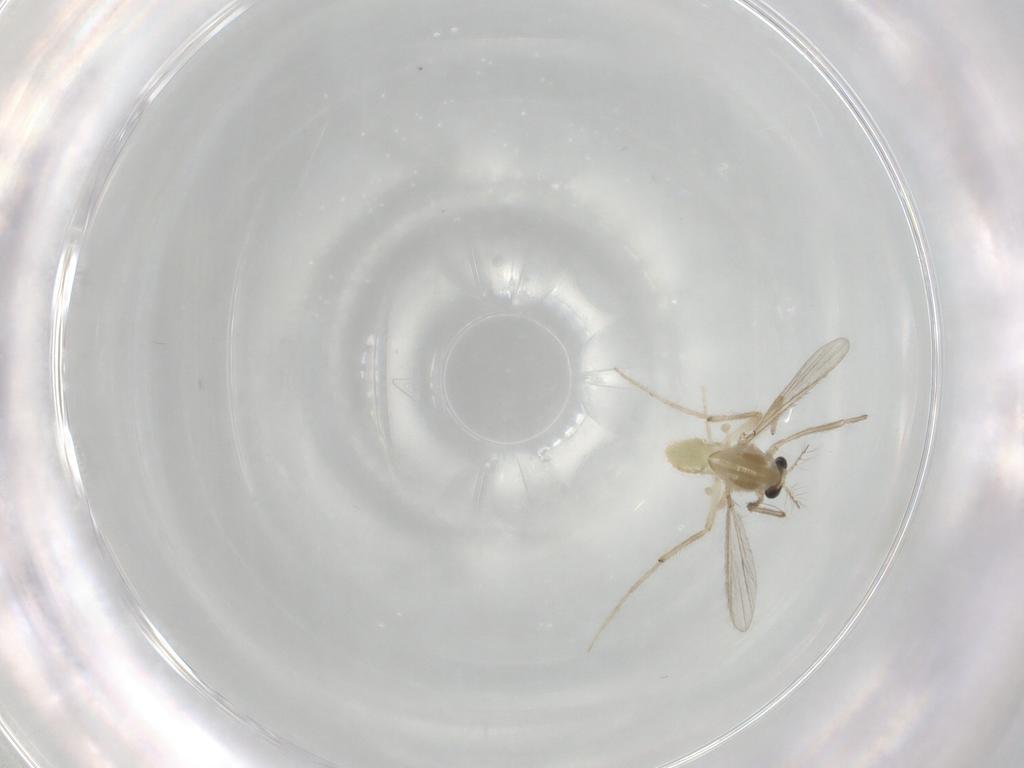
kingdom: Animalia
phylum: Arthropoda
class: Insecta
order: Diptera
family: Chironomidae
